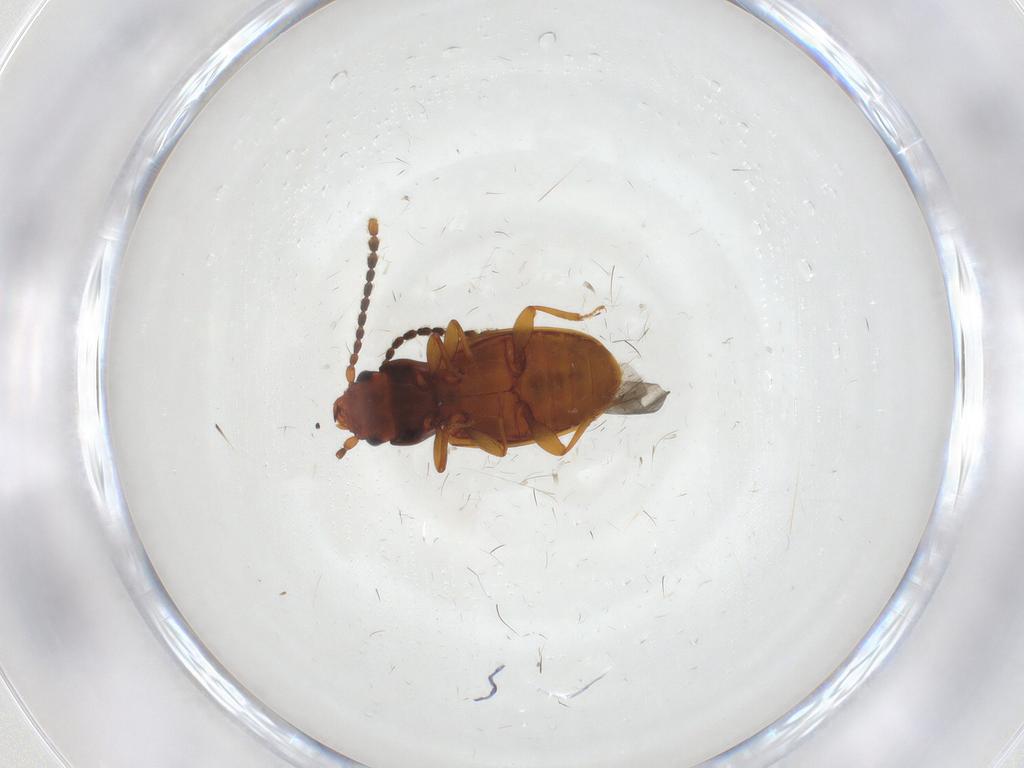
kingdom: Animalia
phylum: Arthropoda
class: Insecta
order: Coleoptera
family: Laemophloeidae
